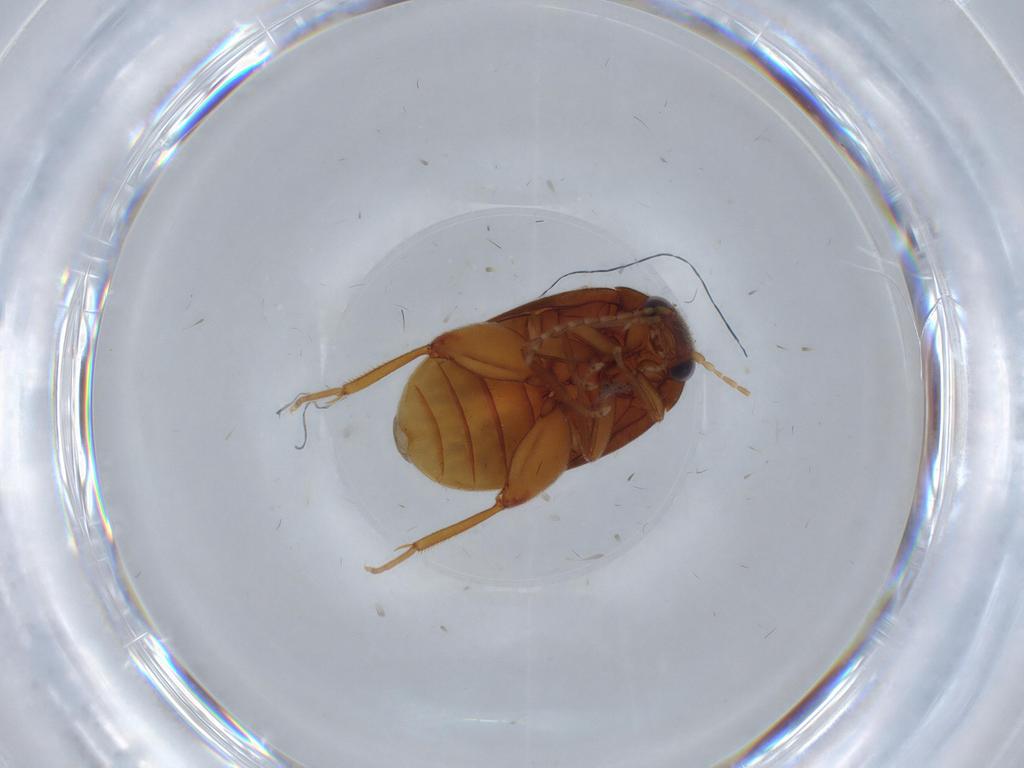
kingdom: Animalia
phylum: Arthropoda
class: Insecta
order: Coleoptera
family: Scirtidae
